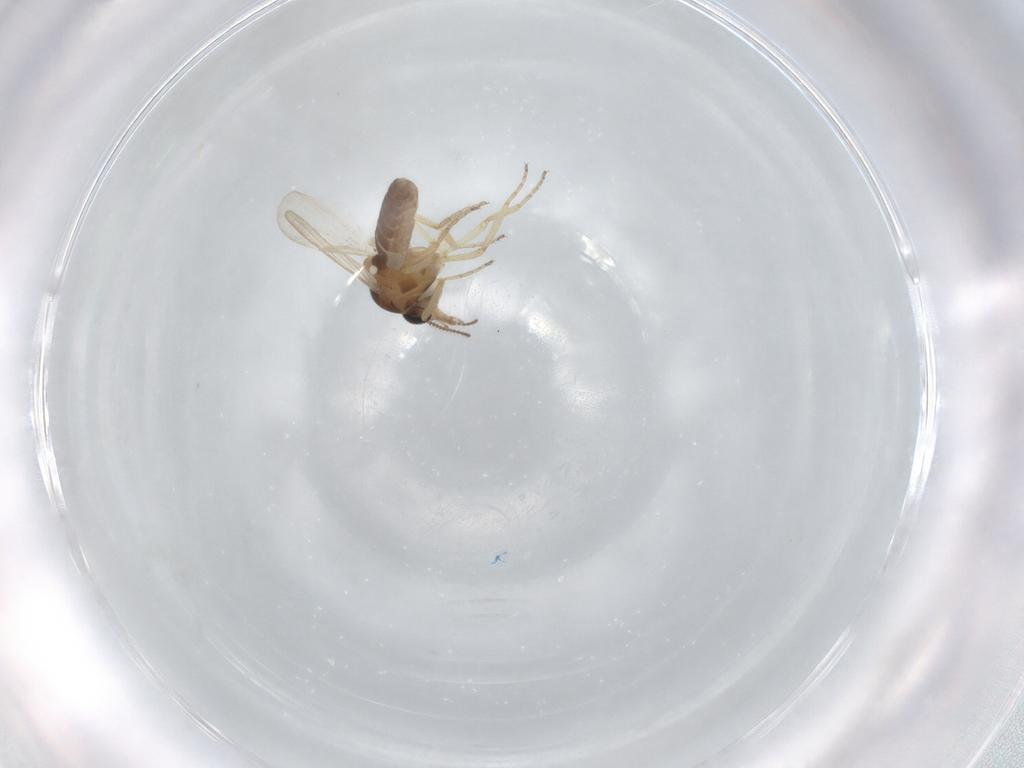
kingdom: Animalia
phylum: Arthropoda
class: Insecta
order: Diptera
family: Ceratopogonidae
